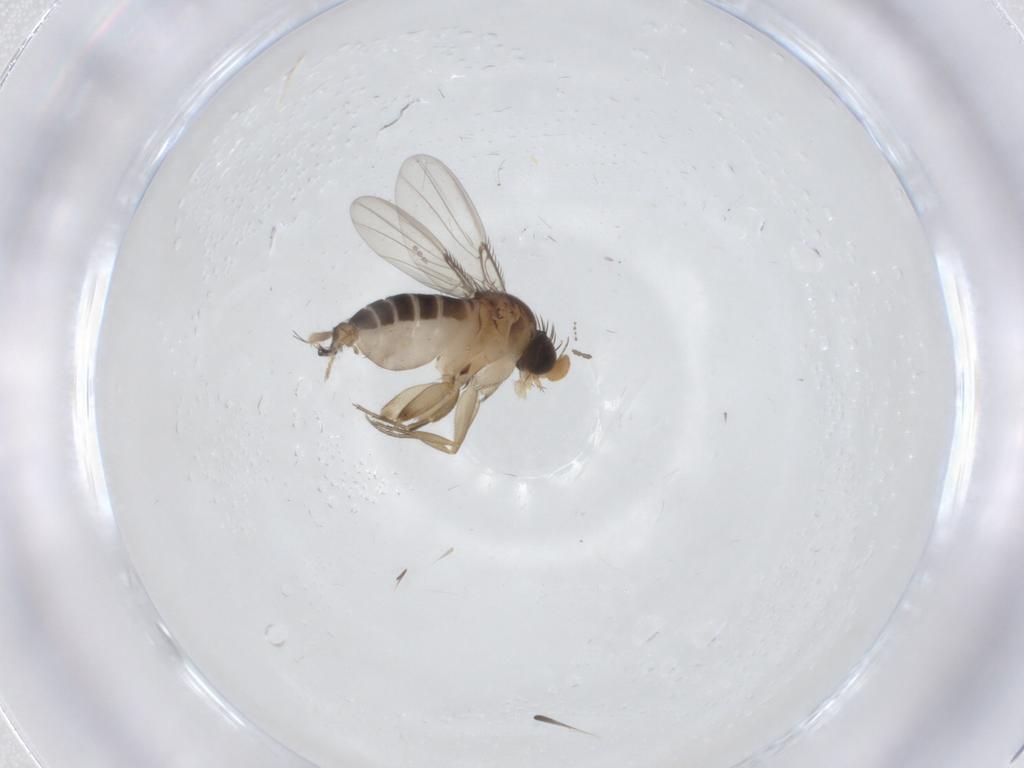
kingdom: Animalia
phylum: Arthropoda
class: Insecta
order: Diptera
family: Cecidomyiidae
